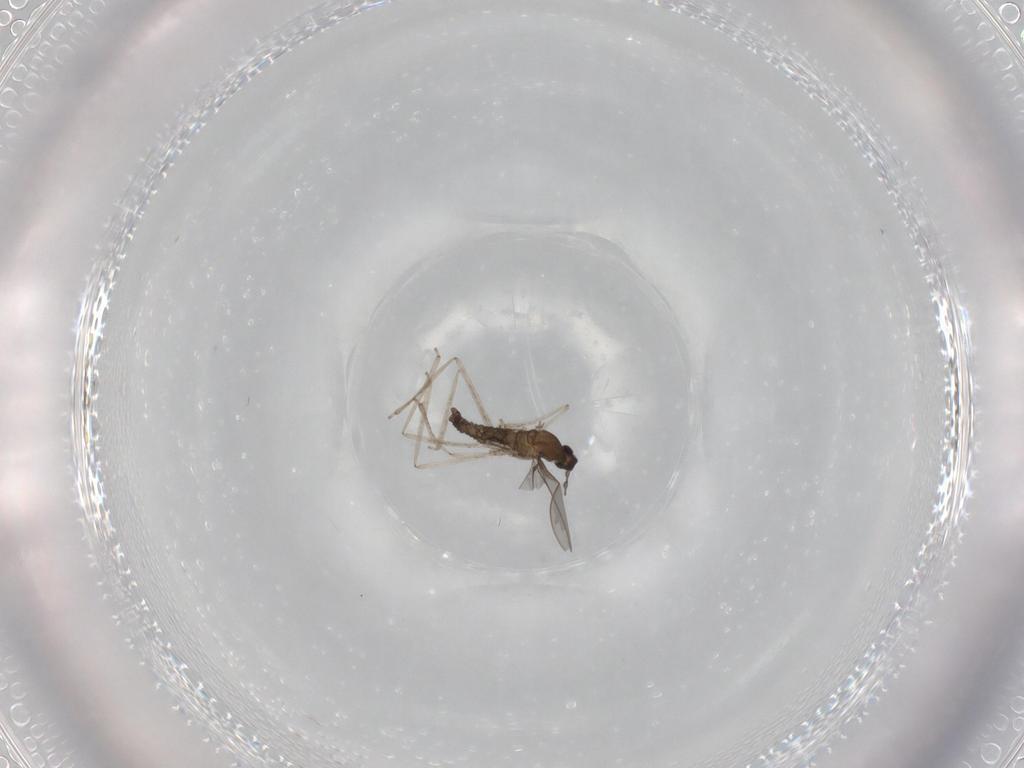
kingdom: Animalia
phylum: Arthropoda
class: Insecta
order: Diptera
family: Cecidomyiidae
